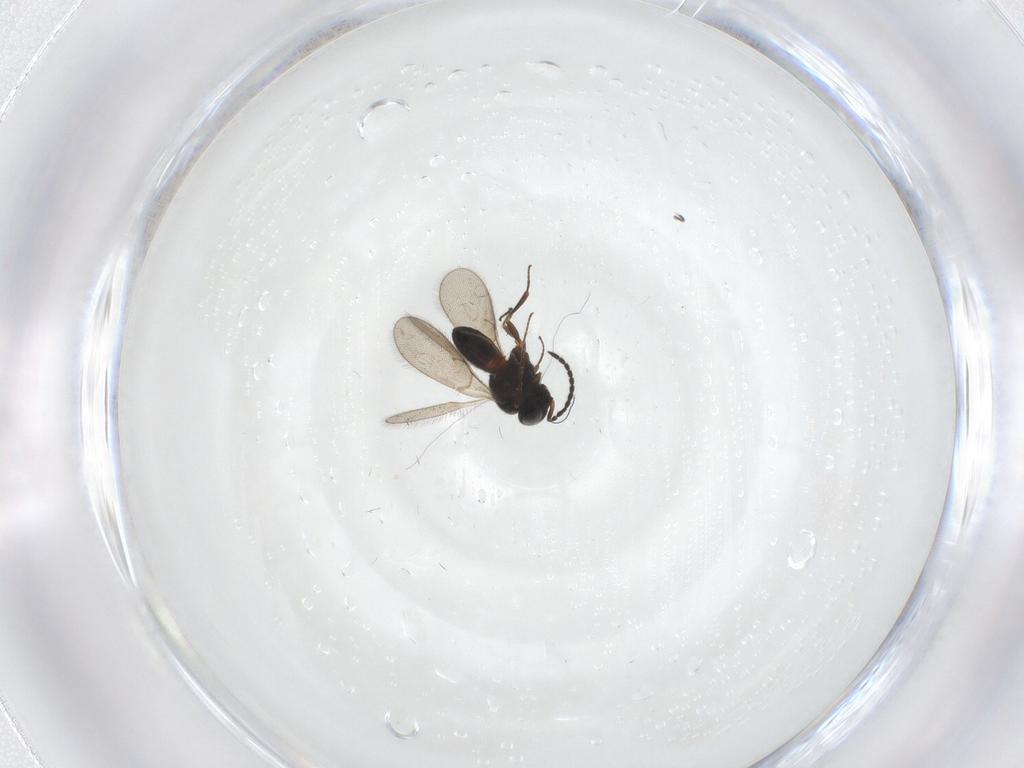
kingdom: Animalia
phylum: Arthropoda
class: Insecta
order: Hymenoptera
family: Scelionidae
